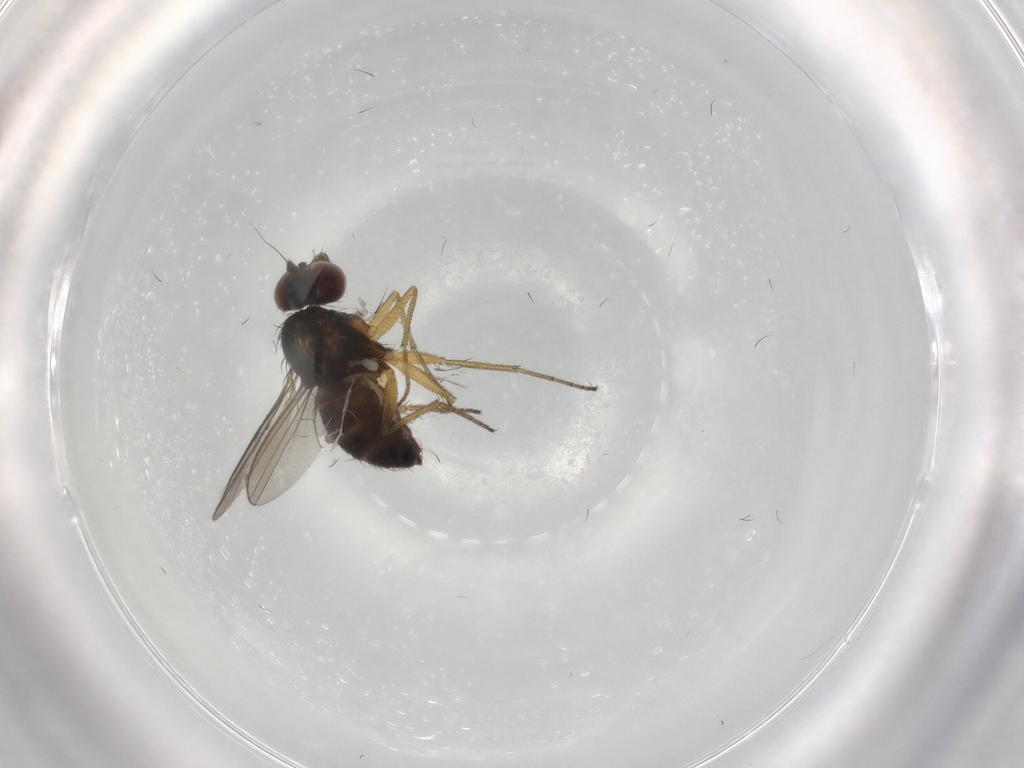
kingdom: Animalia
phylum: Arthropoda
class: Insecta
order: Diptera
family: Dolichopodidae
